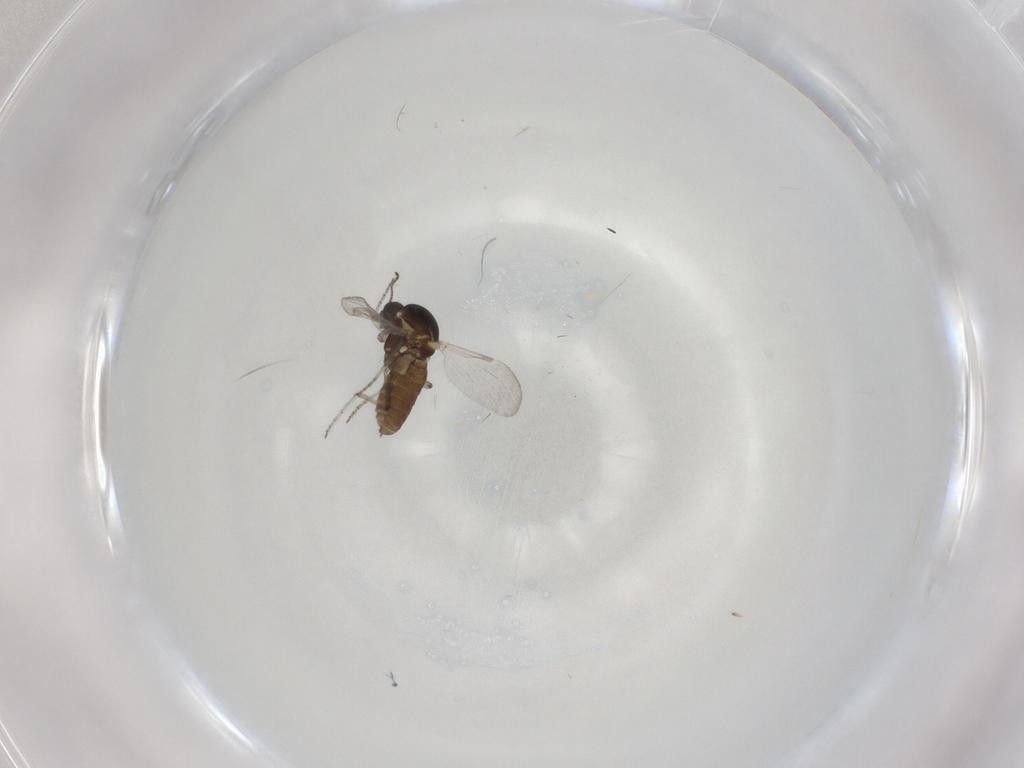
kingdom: Animalia
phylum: Arthropoda
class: Insecta
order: Diptera
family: Ceratopogonidae
